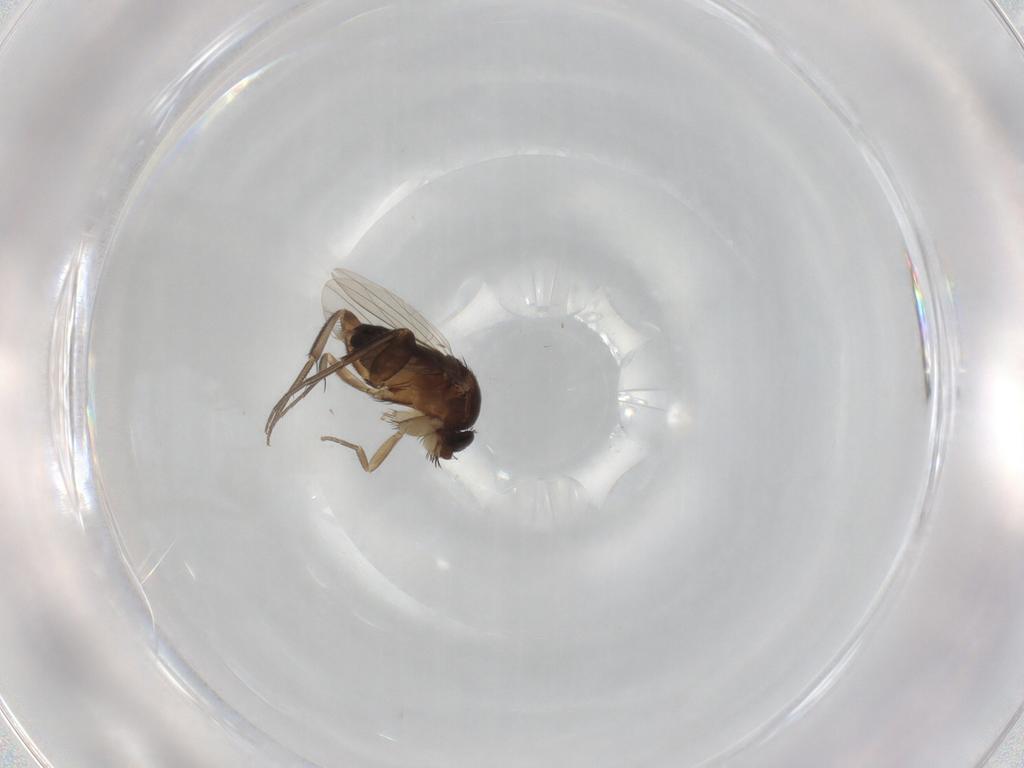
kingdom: Animalia
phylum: Arthropoda
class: Insecta
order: Diptera
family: Phoridae
